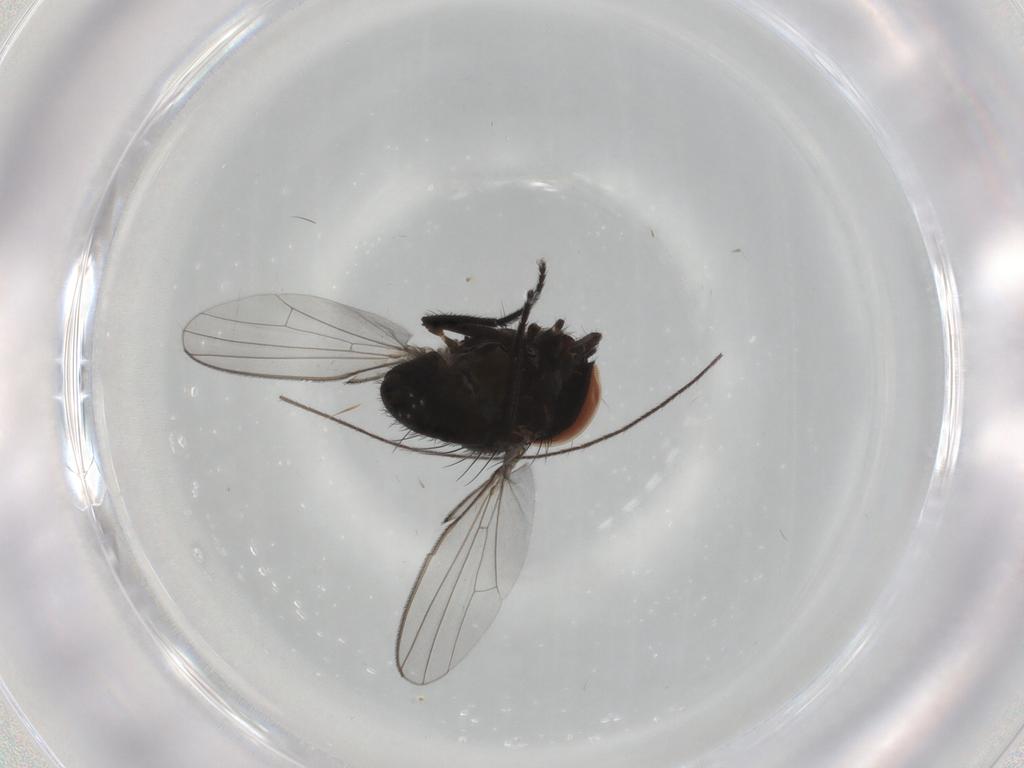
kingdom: Animalia
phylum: Arthropoda
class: Insecta
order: Diptera
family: Milichiidae
